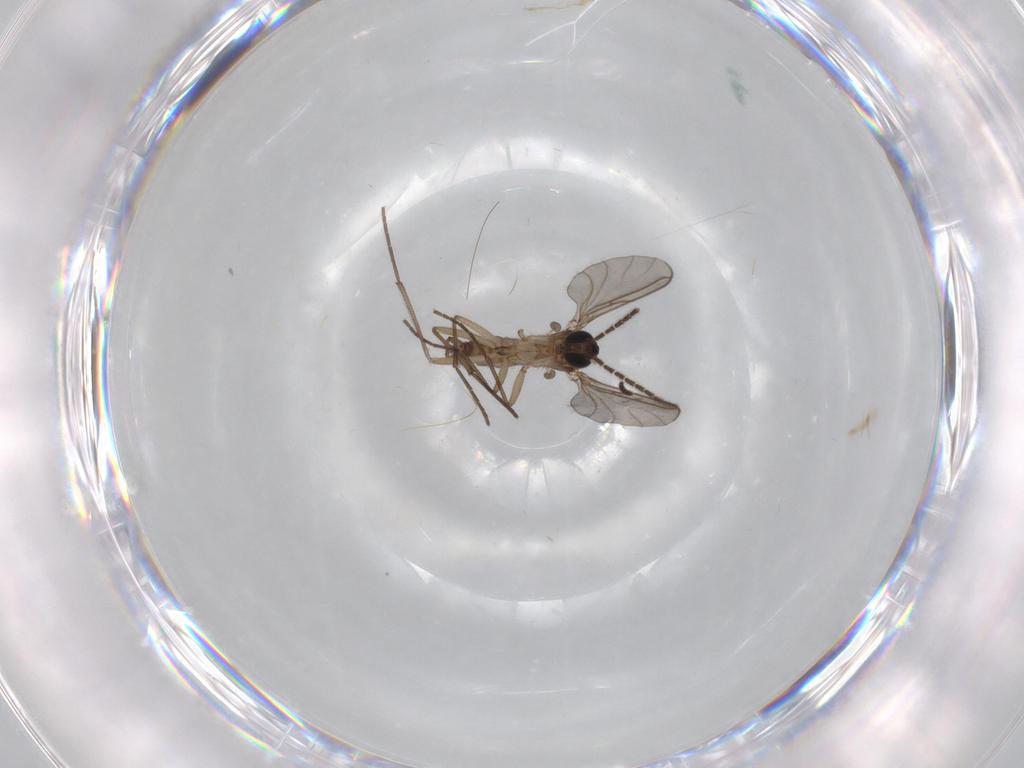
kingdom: Animalia
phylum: Arthropoda
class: Insecta
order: Diptera
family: Sciaridae
